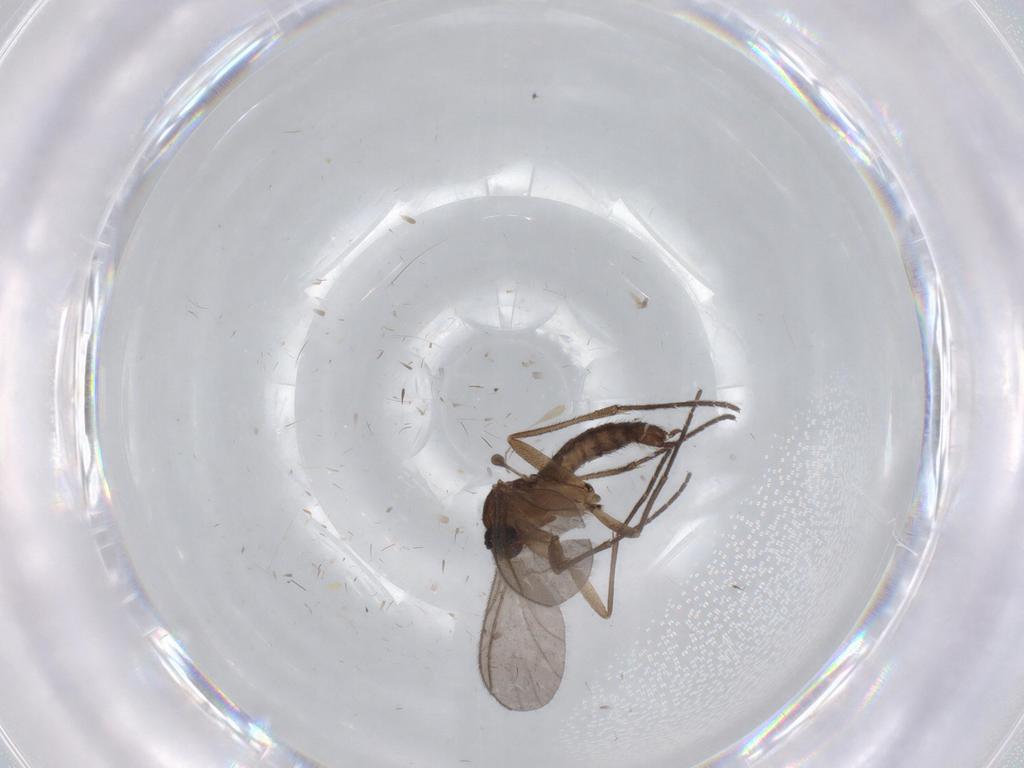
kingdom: Animalia
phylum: Arthropoda
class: Insecta
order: Diptera
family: Chironomidae
